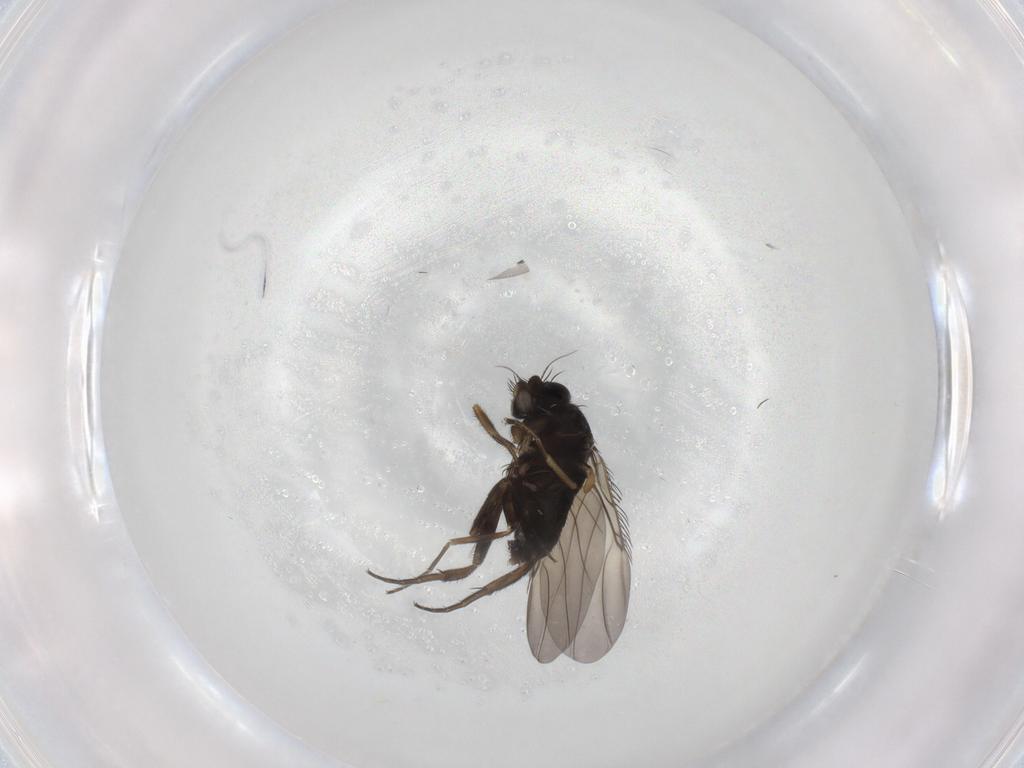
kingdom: Animalia
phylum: Arthropoda
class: Insecta
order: Diptera
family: Phoridae
